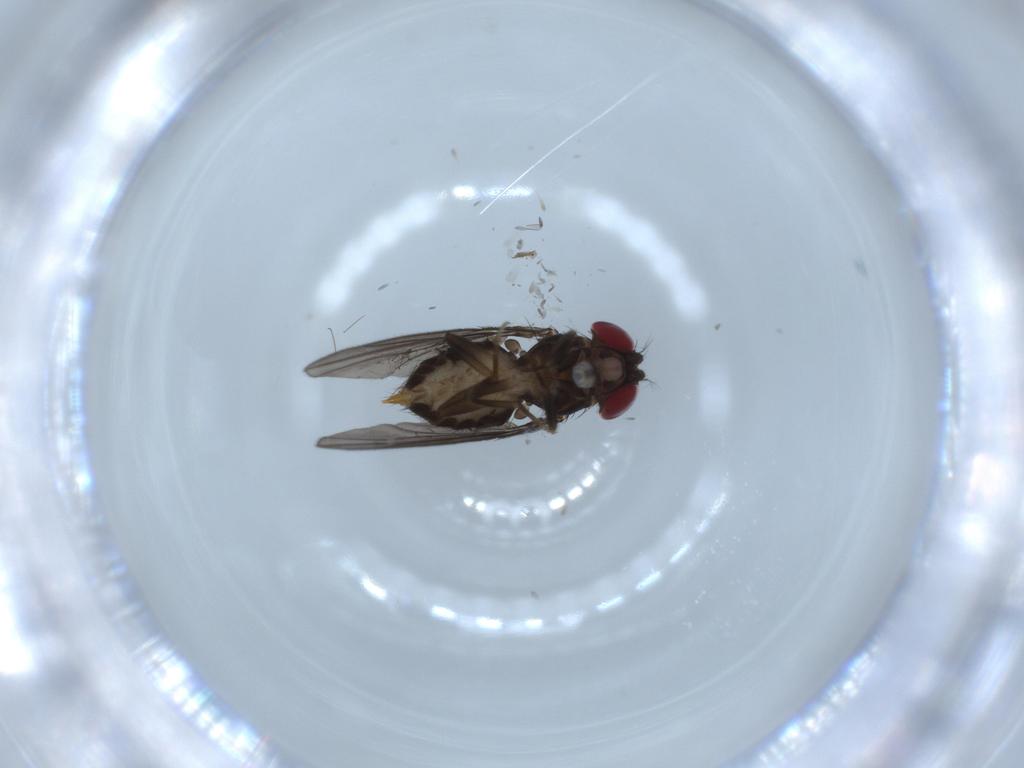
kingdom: Animalia
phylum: Arthropoda
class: Insecta
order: Diptera
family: Drosophilidae
